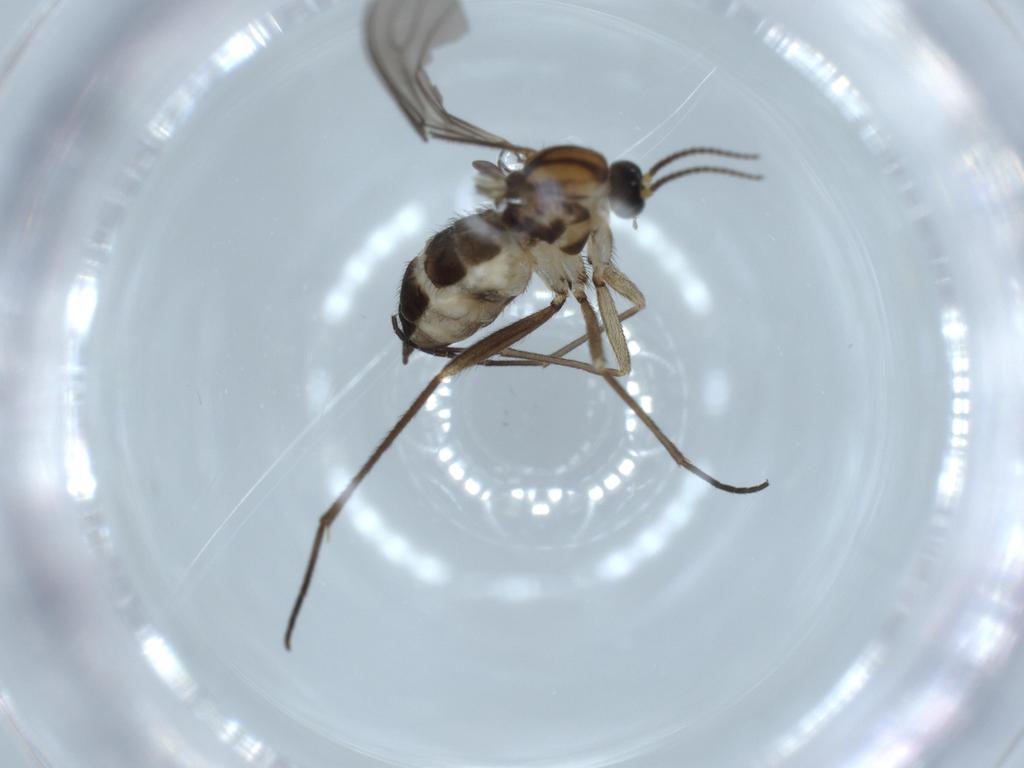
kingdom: Animalia
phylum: Arthropoda
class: Insecta
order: Diptera
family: Sciaridae
